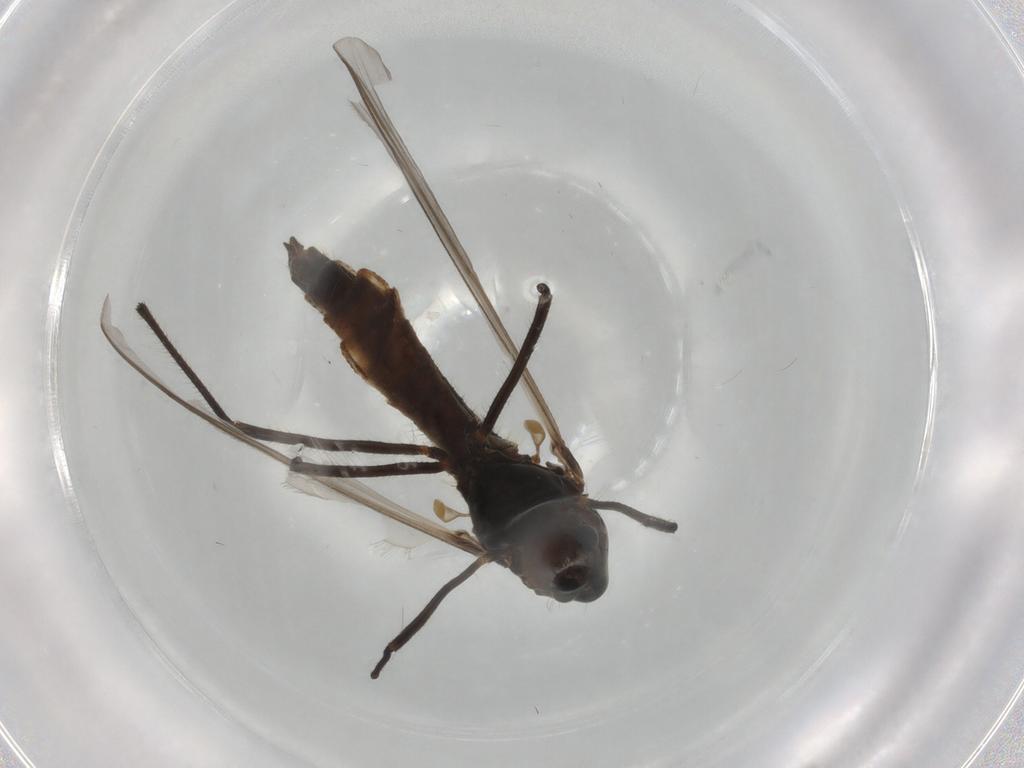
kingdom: Animalia
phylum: Arthropoda
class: Insecta
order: Diptera
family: Chironomidae
